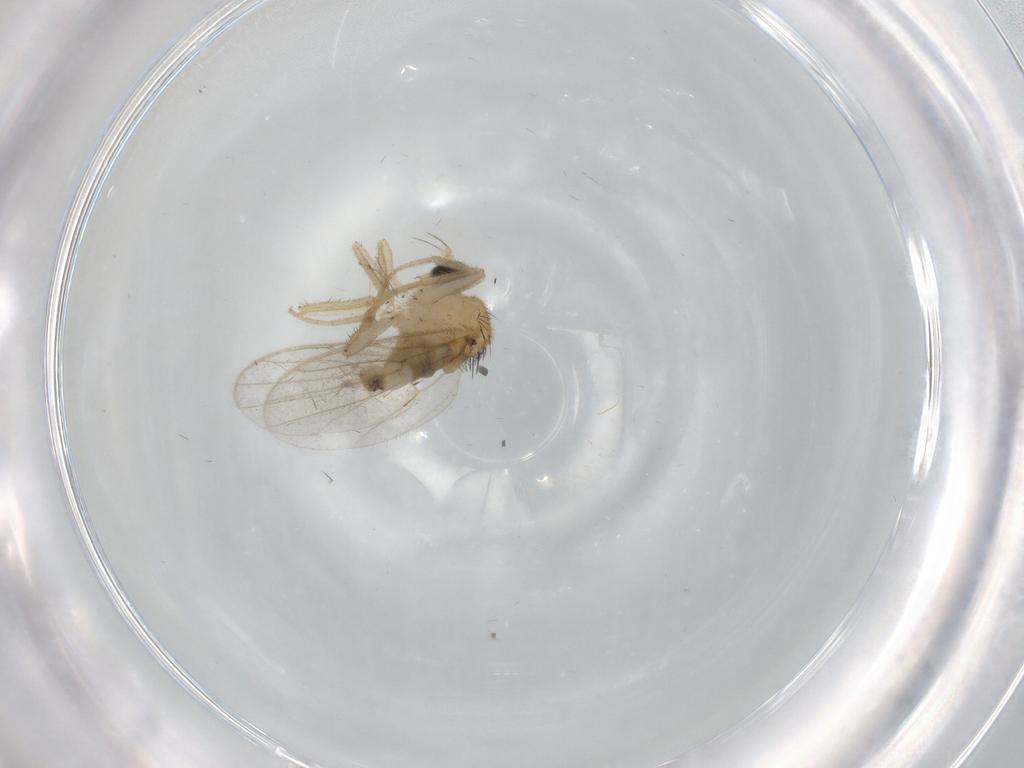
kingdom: Animalia
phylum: Arthropoda
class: Insecta
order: Diptera
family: Hybotidae
